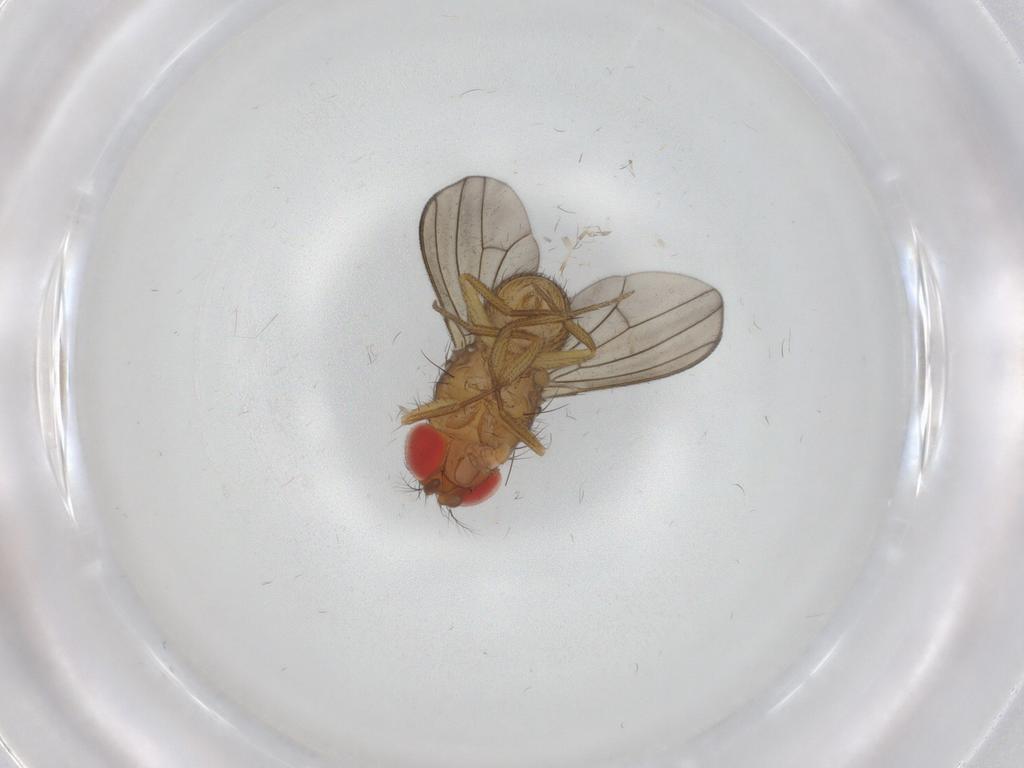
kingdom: Animalia
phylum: Arthropoda
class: Insecta
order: Diptera
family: Drosophilidae
